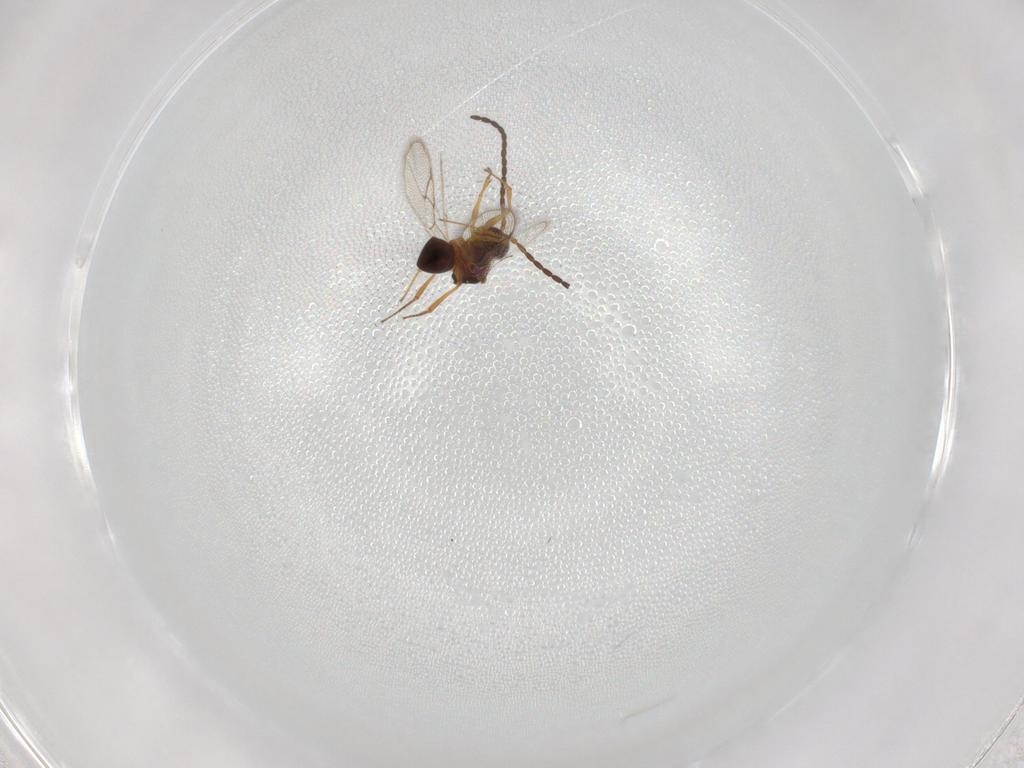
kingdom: Animalia
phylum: Arthropoda
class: Insecta
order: Hymenoptera
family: Figitidae
